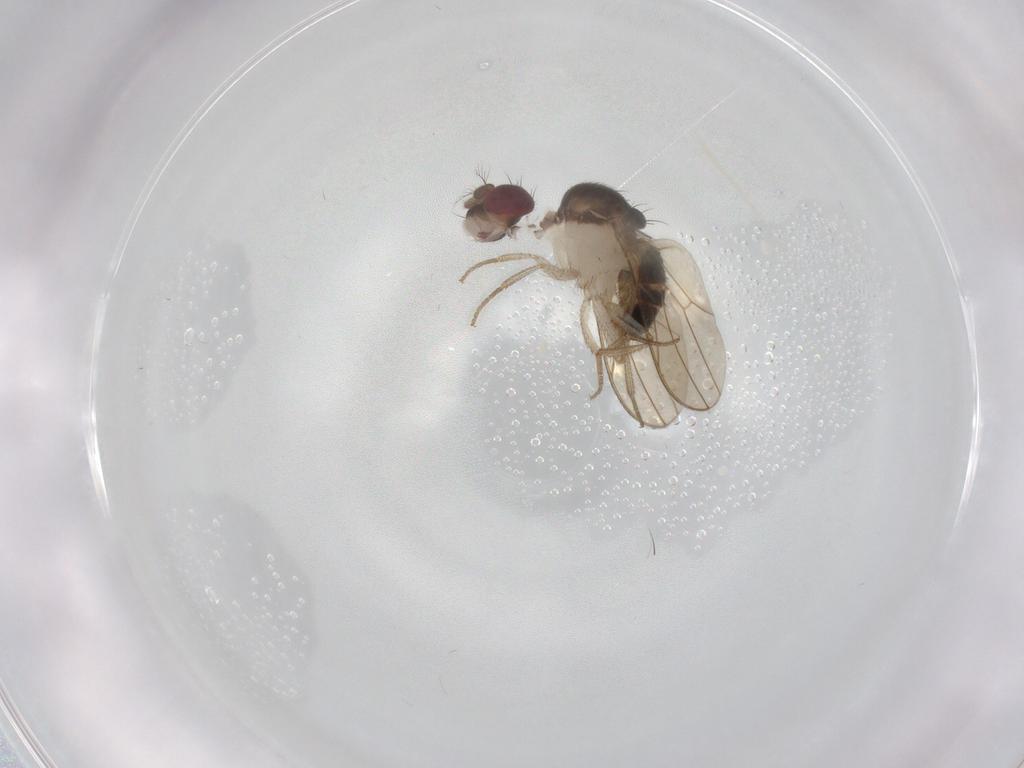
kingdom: Animalia
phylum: Arthropoda
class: Insecta
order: Diptera
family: Drosophilidae
